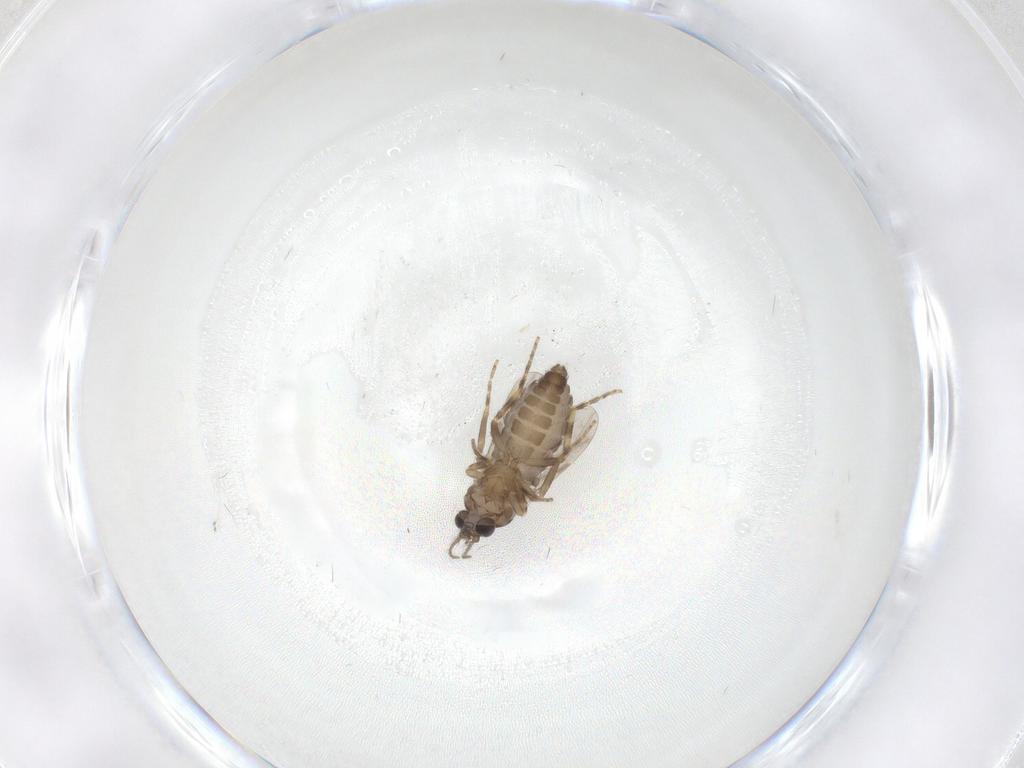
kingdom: Animalia
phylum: Arthropoda
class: Insecta
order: Diptera
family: Ceratopogonidae
